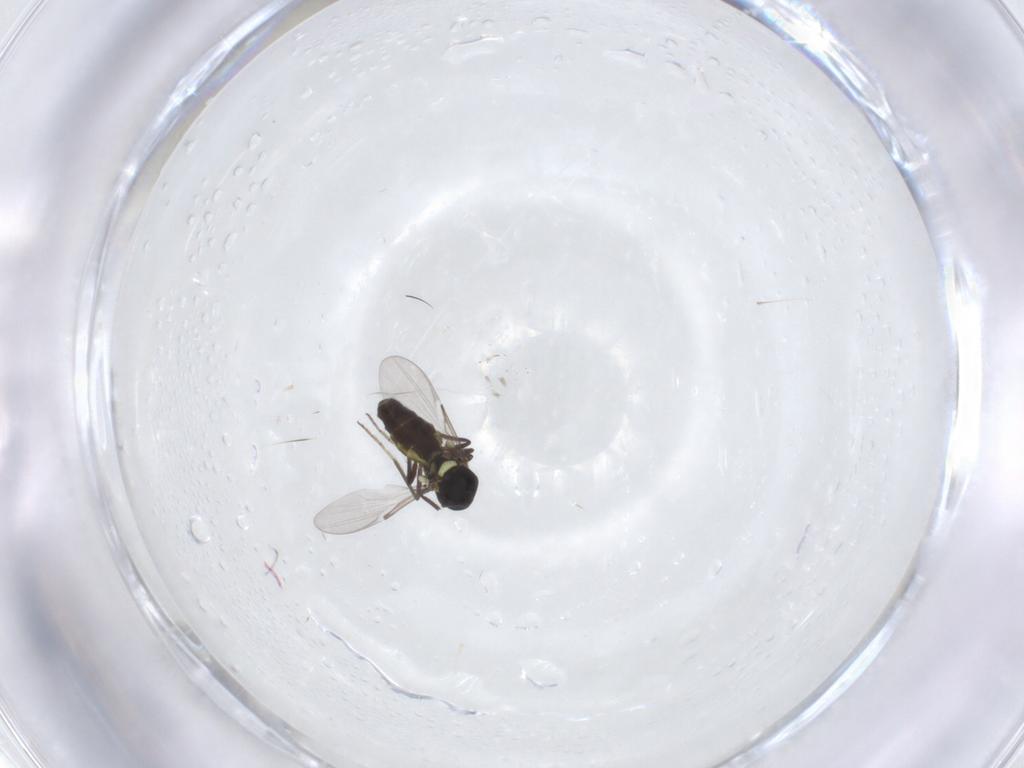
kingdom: Animalia
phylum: Arthropoda
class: Insecta
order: Diptera
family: Ceratopogonidae
